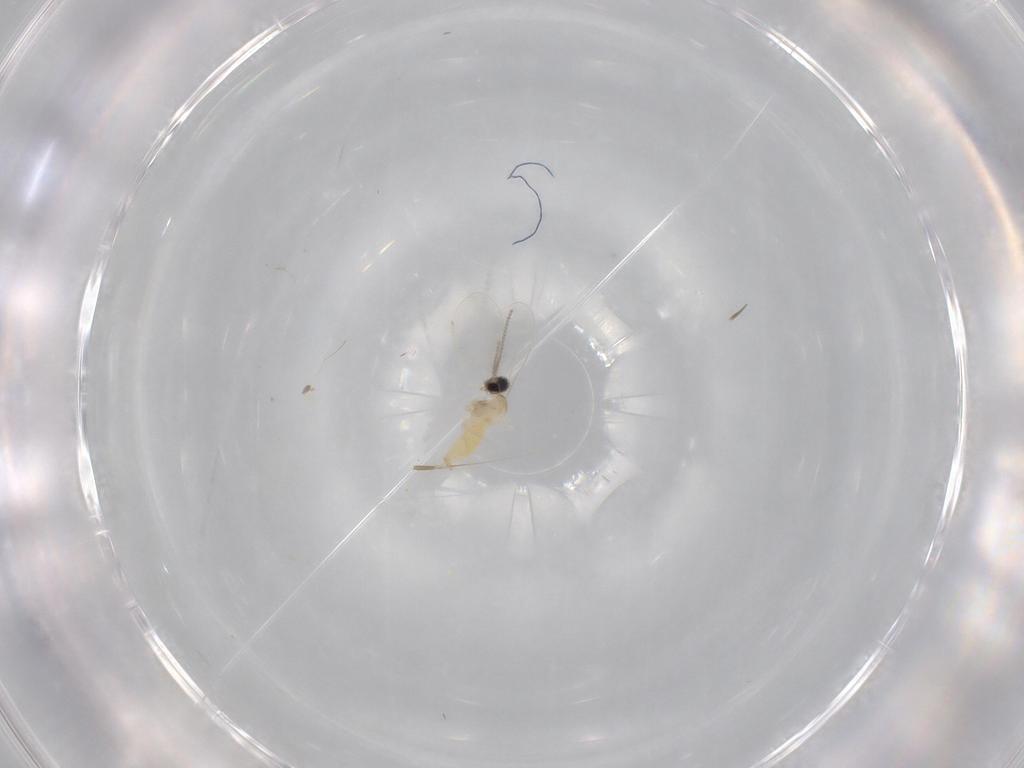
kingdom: Animalia
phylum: Arthropoda
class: Insecta
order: Diptera
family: Cecidomyiidae
